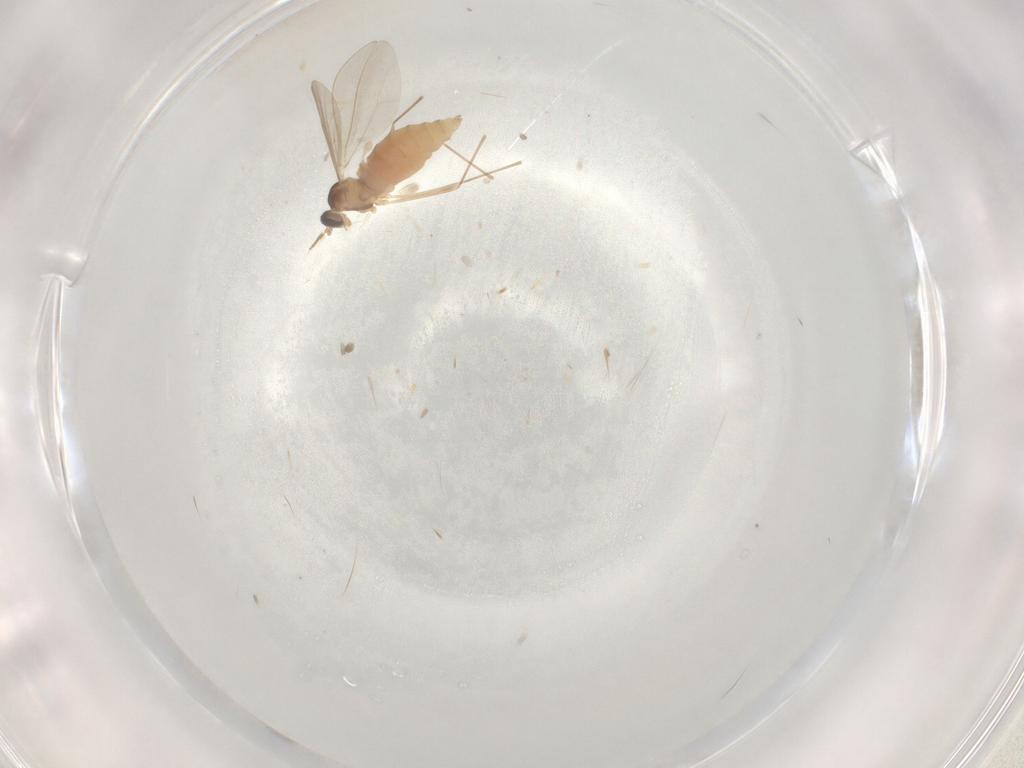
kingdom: Animalia
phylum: Arthropoda
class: Insecta
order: Diptera
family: Cecidomyiidae
